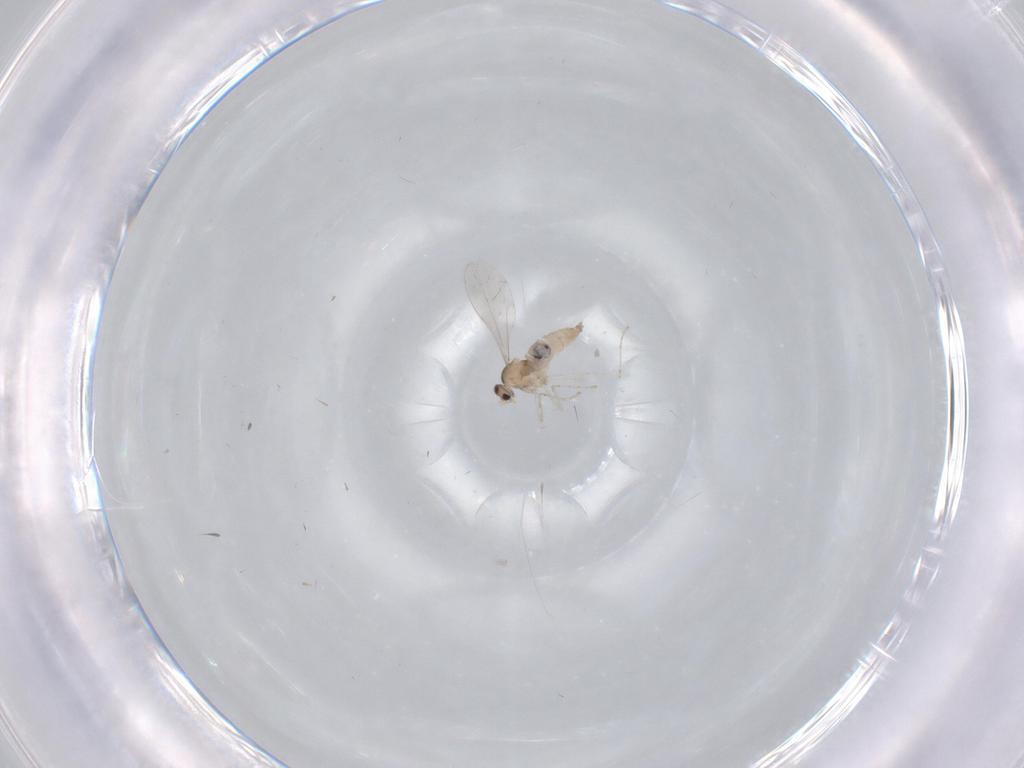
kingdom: Animalia
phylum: Arthropoda
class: Insecta
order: Diptera
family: Cecidomyiidae
